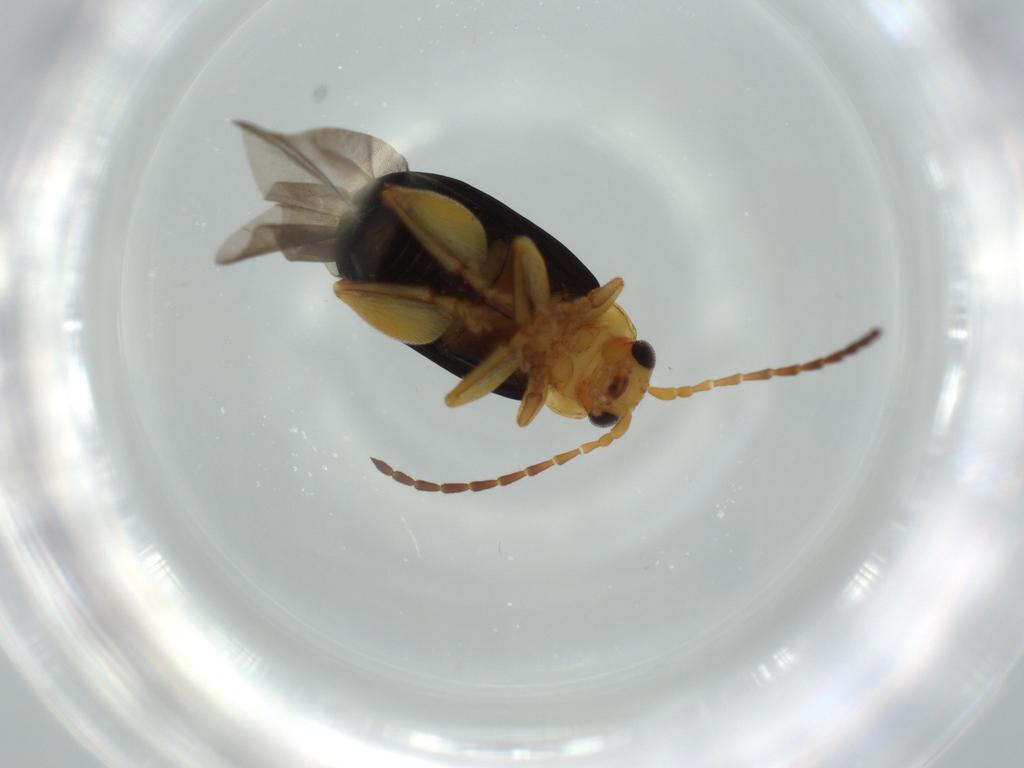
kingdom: Animalia
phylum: Arthropoda
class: Insecta
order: Coleoptera
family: Chrysomelidae
